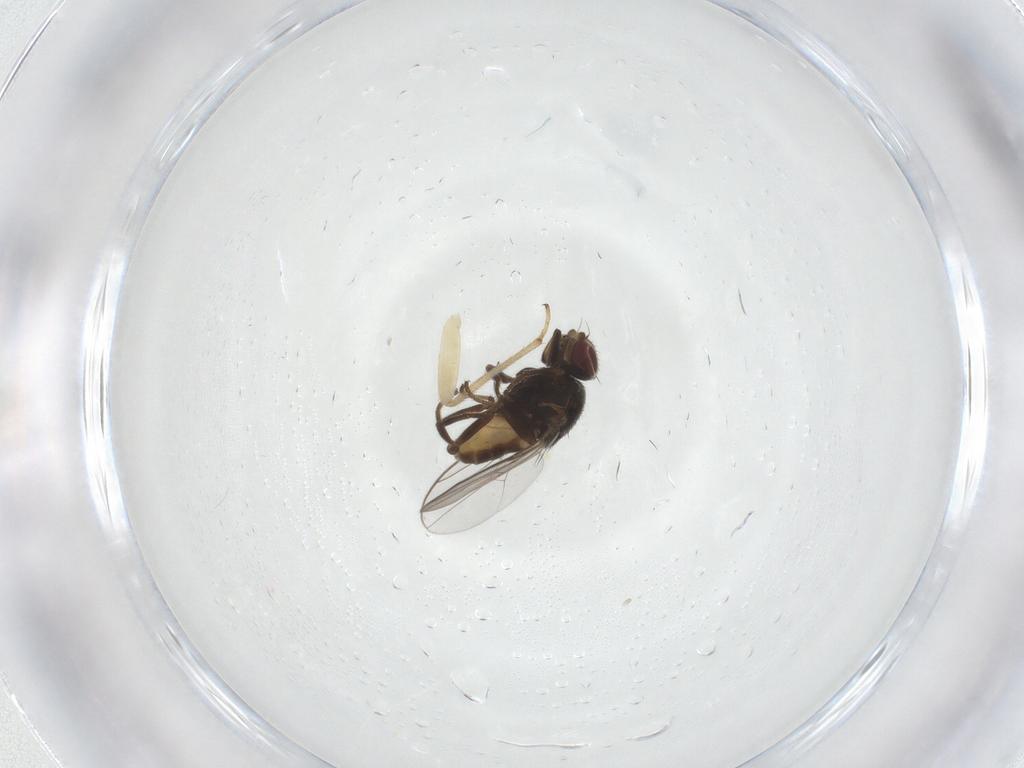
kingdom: Animalia
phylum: Arthropoda
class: Insecta
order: Diptera
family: Chloropidae
